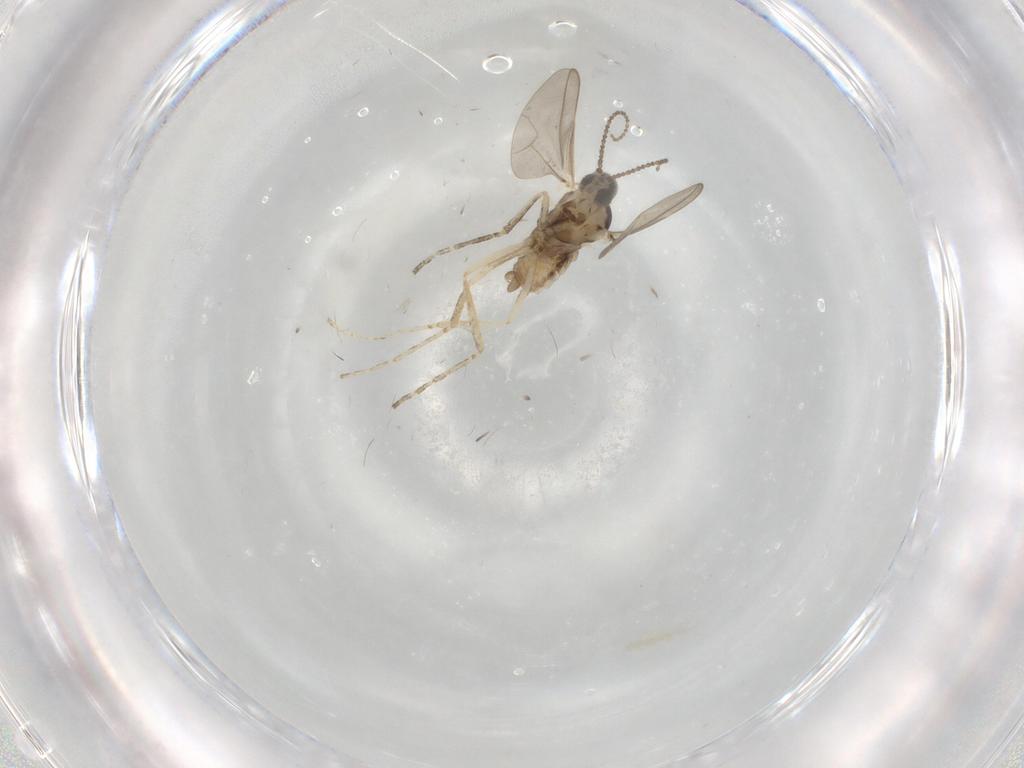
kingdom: Animalia
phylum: Arthropoda
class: Insecta
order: Diptera
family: Cecidomyiidae
